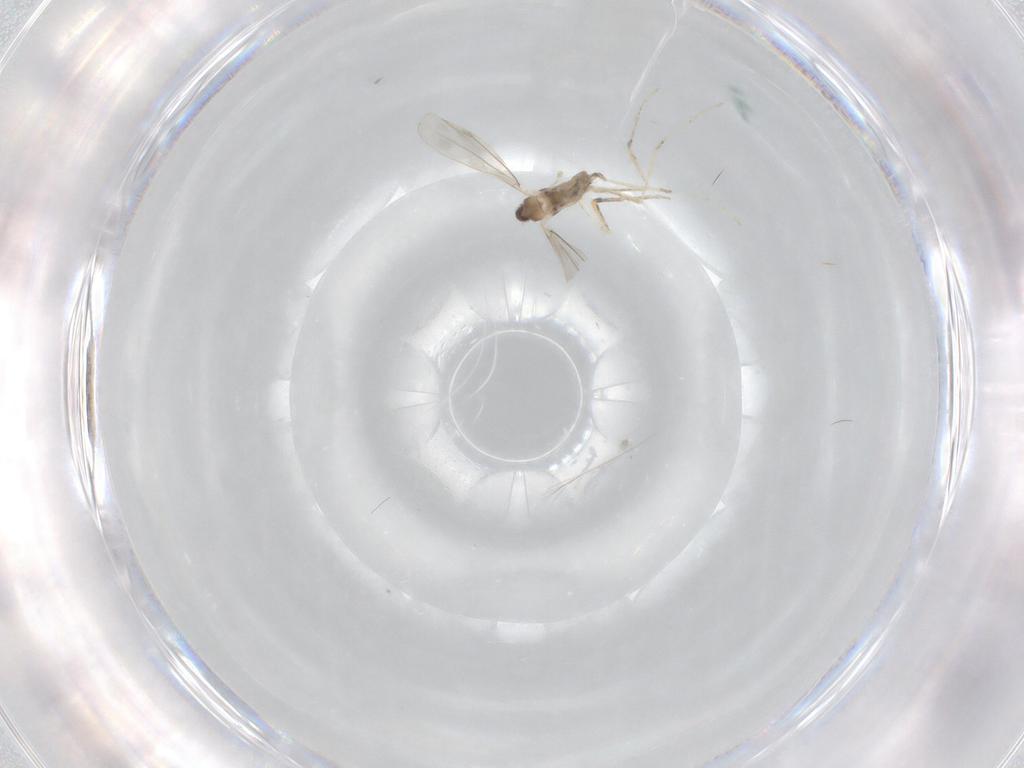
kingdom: Animalia
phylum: Arthropoda
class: Insecta
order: Diptera
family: Cecidomyiidae
